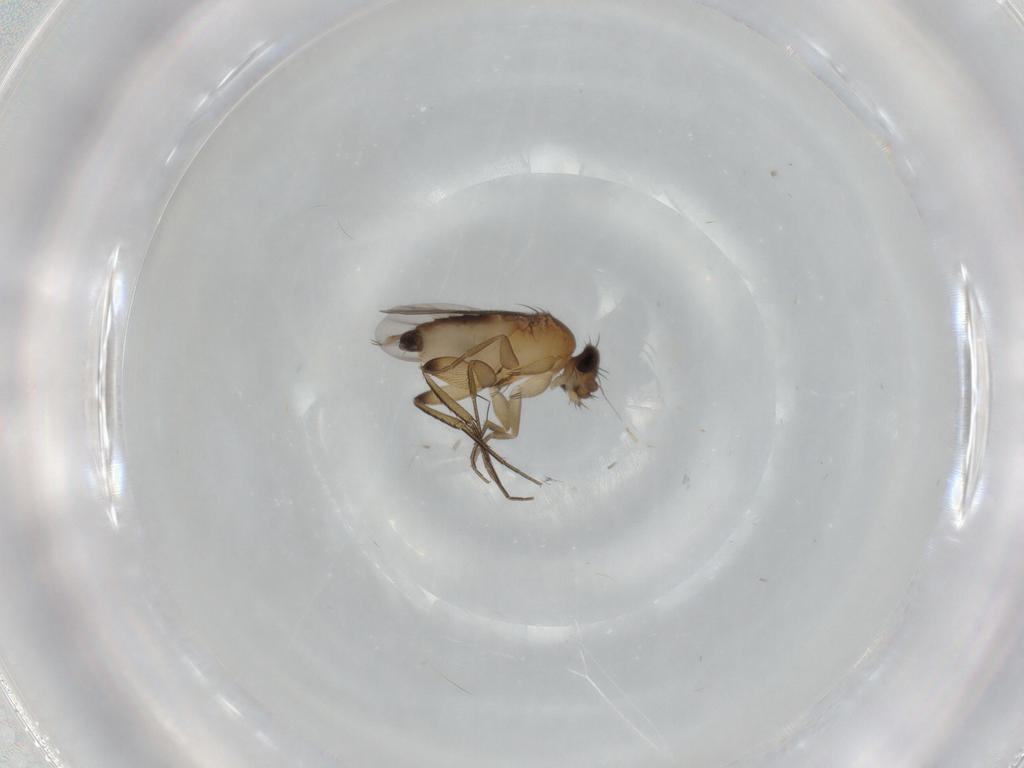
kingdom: Animalia
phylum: Arthropoda
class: Insecta
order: Diptera
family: Phoridae
